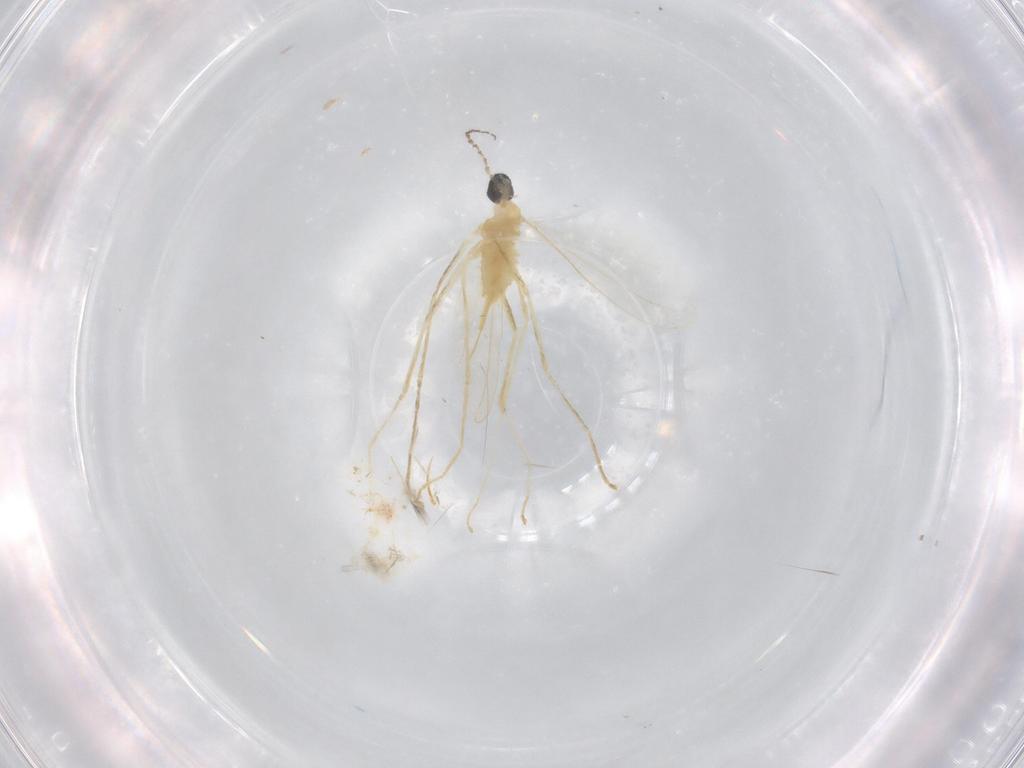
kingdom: Animalia
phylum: Arthropoda
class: Insecta
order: Diptera
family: Cecidomyiidae
